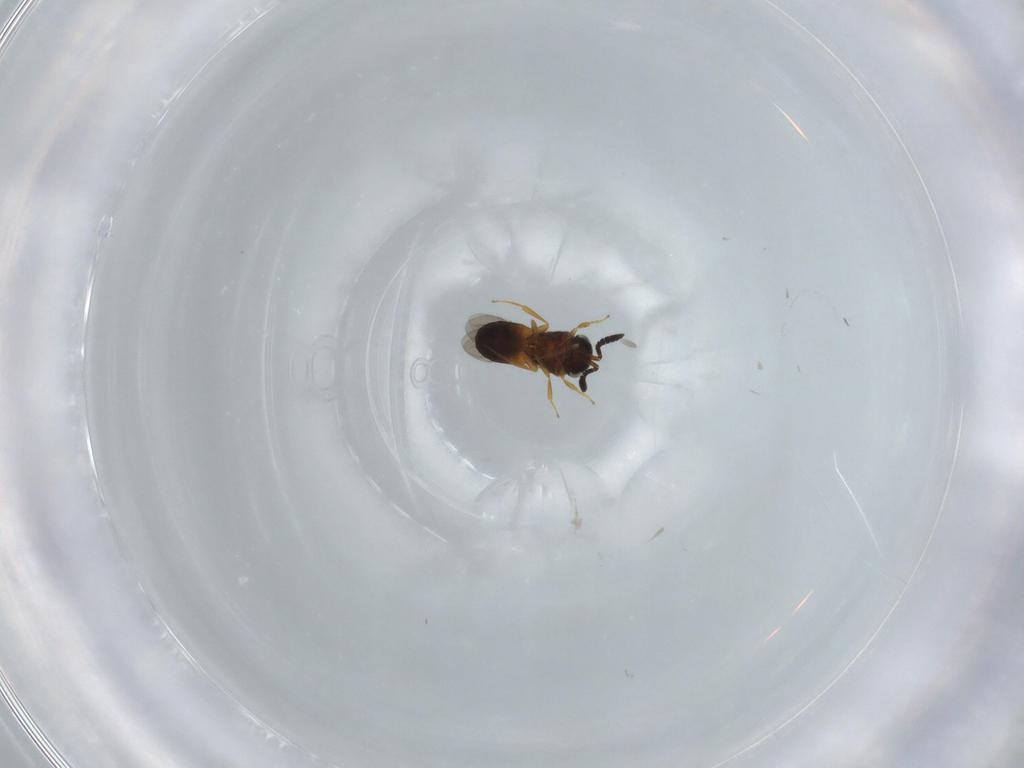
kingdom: Animalia
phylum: Arthropoda
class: Insecta
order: Hymenoptera
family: Scelionidae
